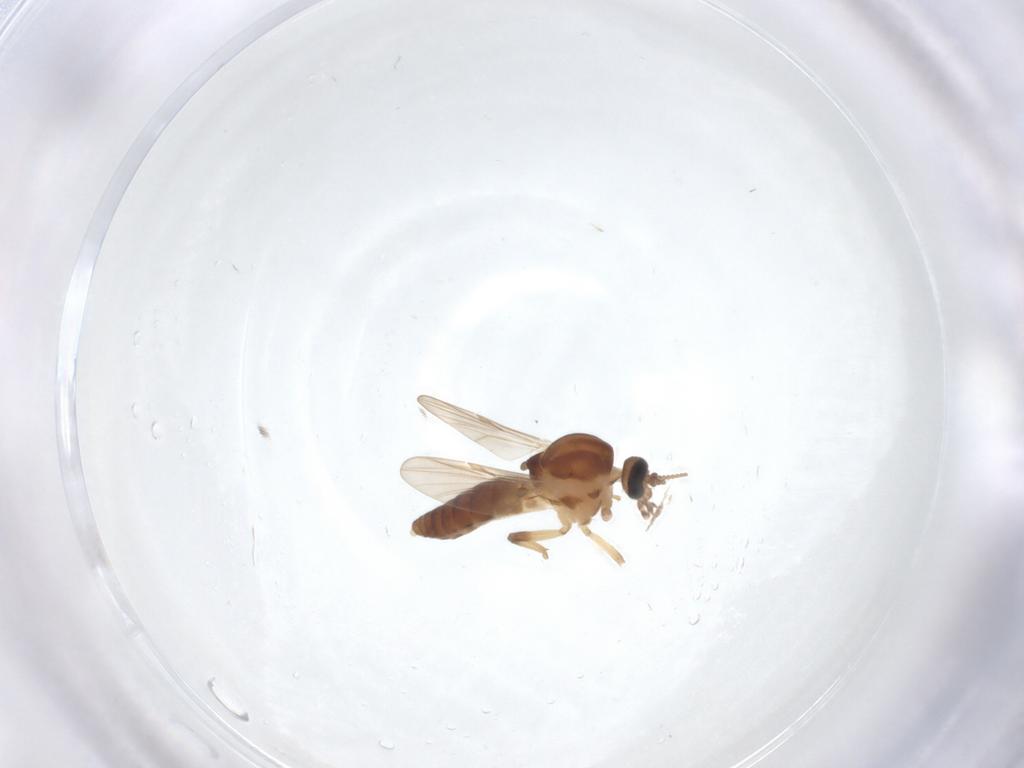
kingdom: Animalia
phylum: Arthropoda
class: Insecta
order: Diptera
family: Ceratopogonidae
